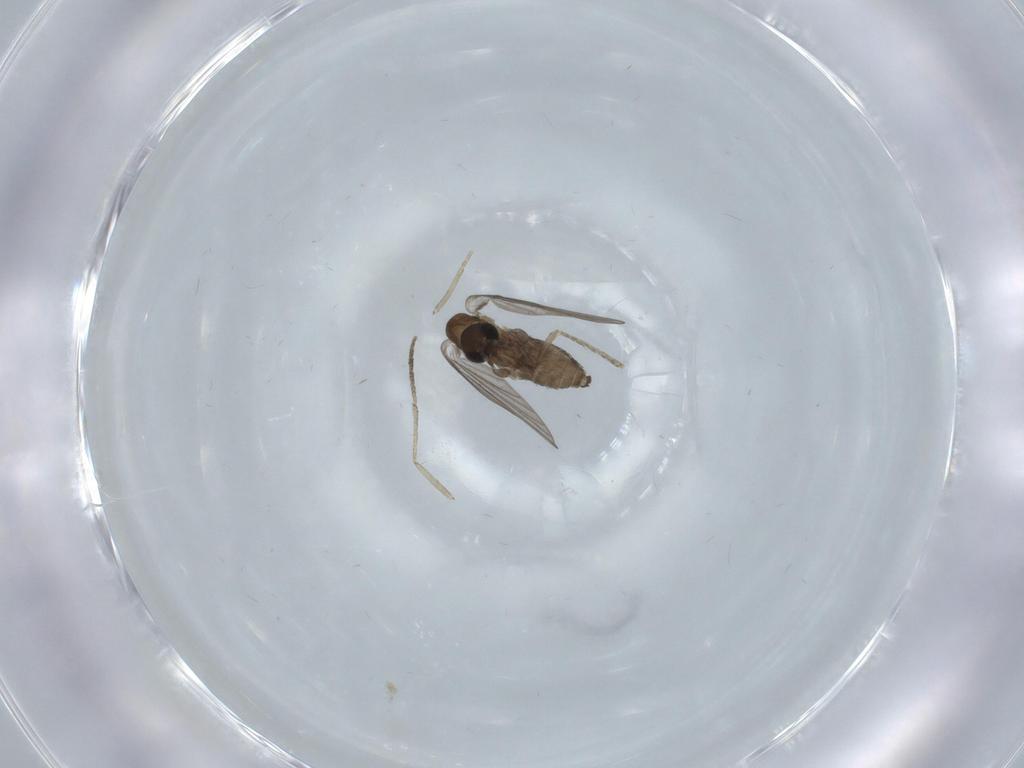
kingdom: Animalia
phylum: Arthropoda
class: Insecta
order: Diptera
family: Psychodidae
